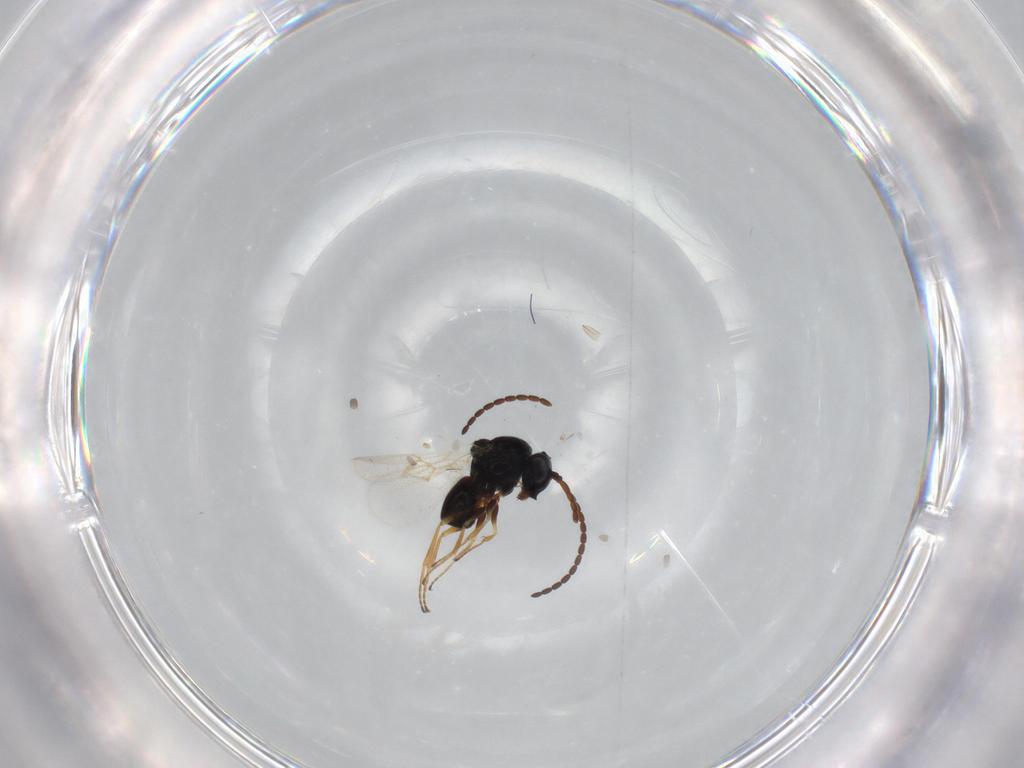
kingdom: Animalia
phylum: Arthropoda
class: Insecta
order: Hymenoptera
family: Figitidae
